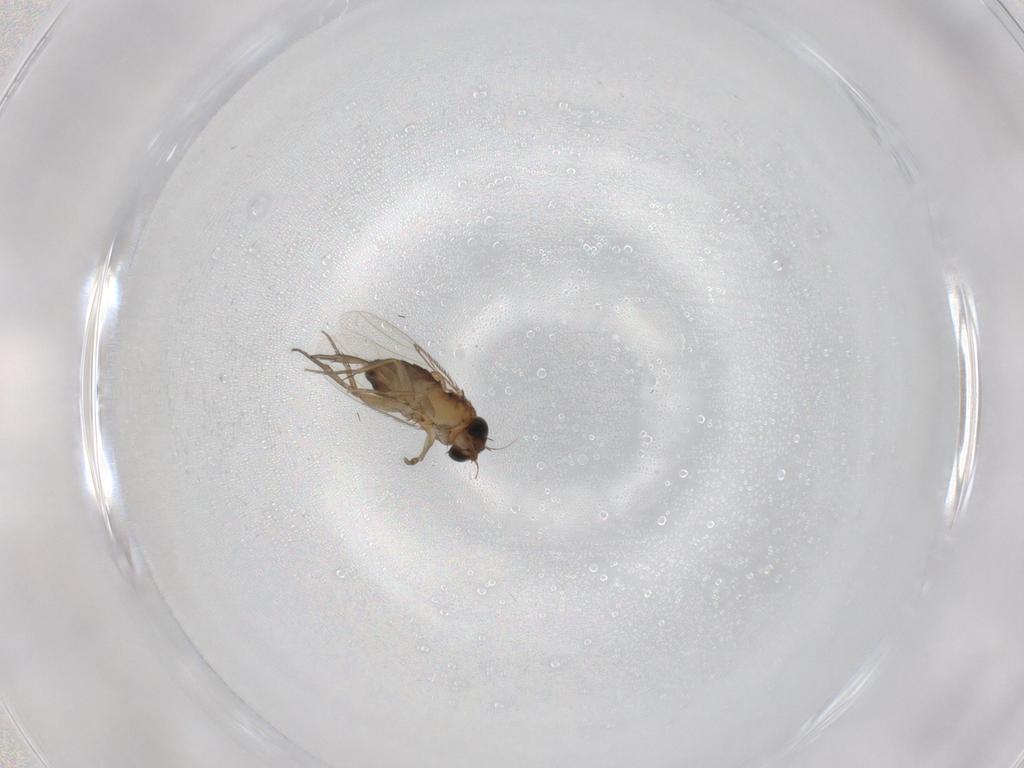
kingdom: Animalia
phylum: Arthropoda
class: Insecta
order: Diptera
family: Phoridae
